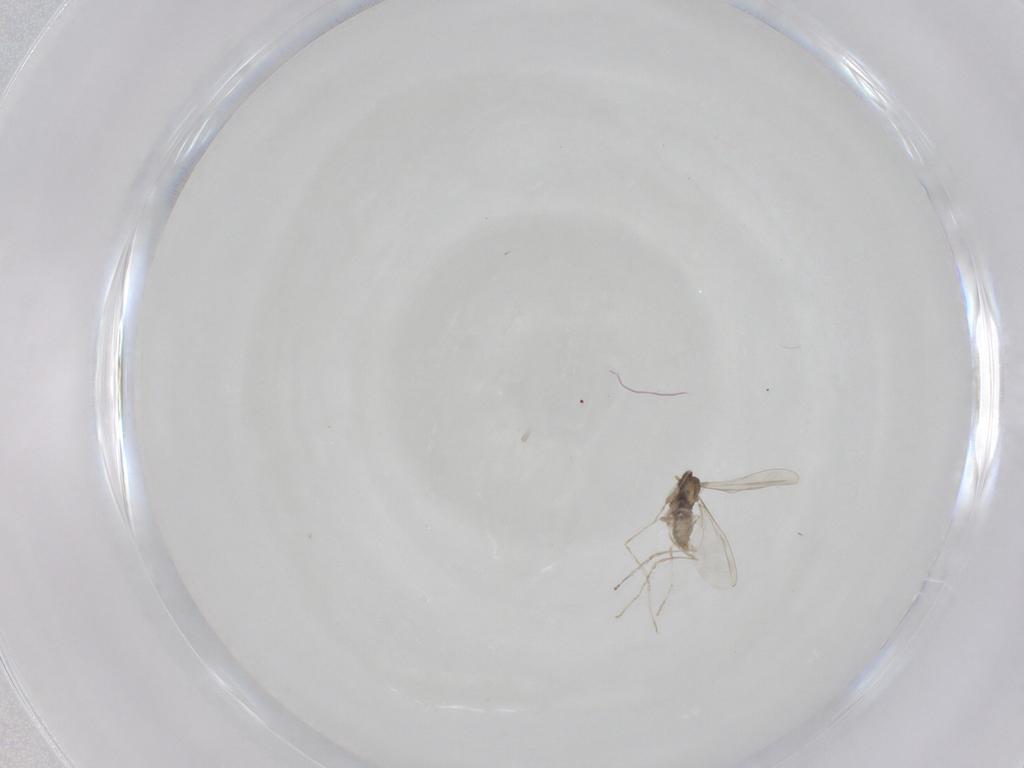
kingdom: Animalia
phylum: Arthropoda
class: Insecta
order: Diptera
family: Cecidomyiidae
